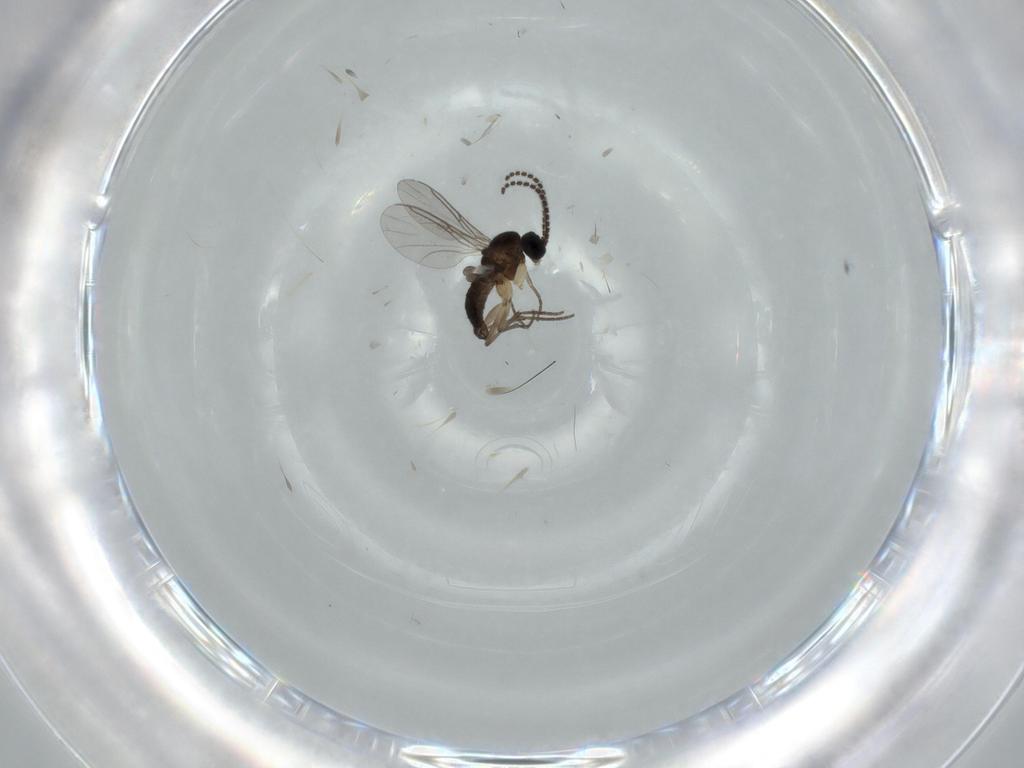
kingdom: Animalia
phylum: Arthropoda
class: Insecta
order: Diptera
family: Sciaridae
